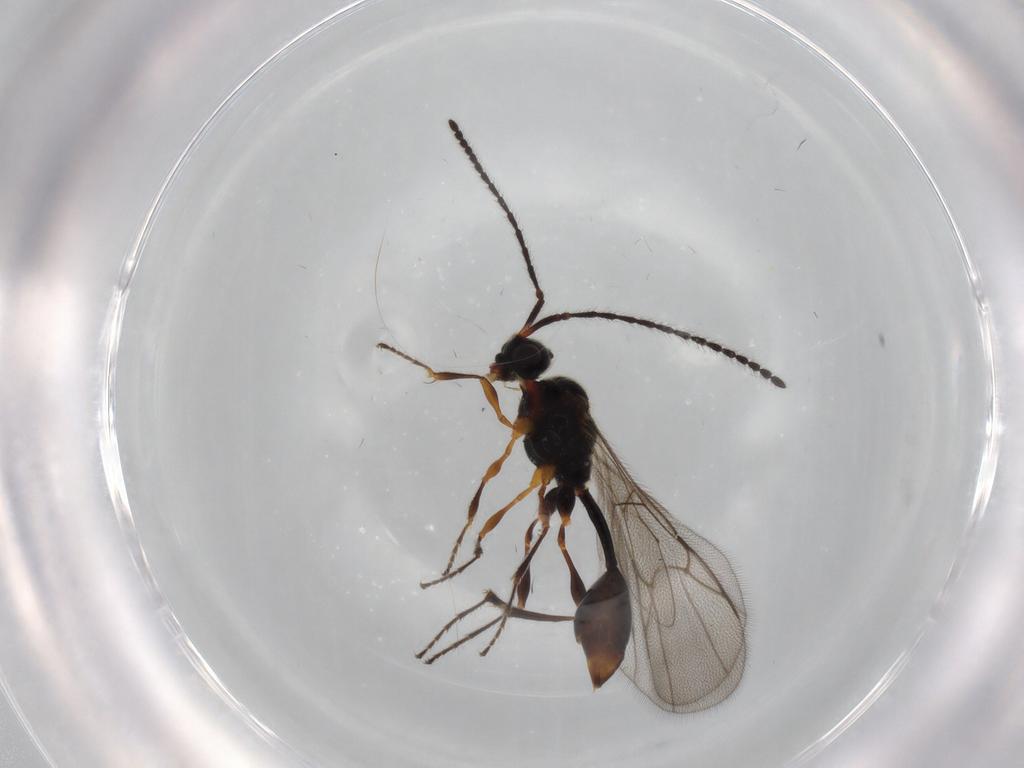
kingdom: Animalia
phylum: Arthropoda
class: Insecta
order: Hymenoptera
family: Diapriidae
